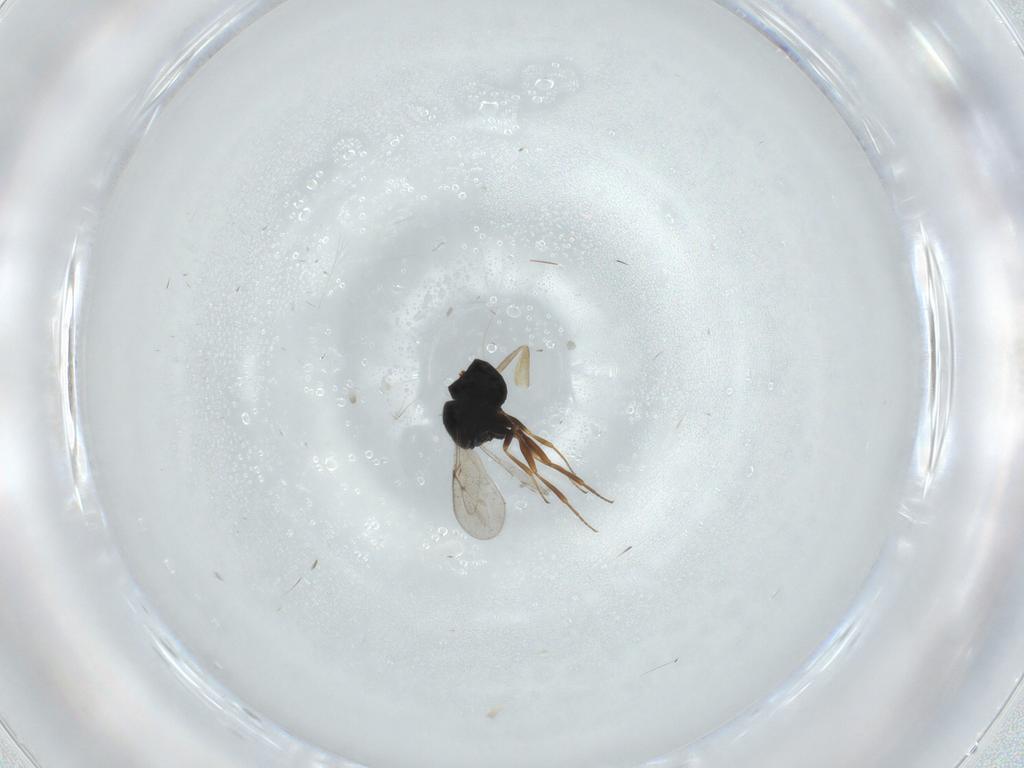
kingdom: Animalia
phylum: Arthropoda
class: Insecta
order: Hymenoptera
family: Scelionidae
